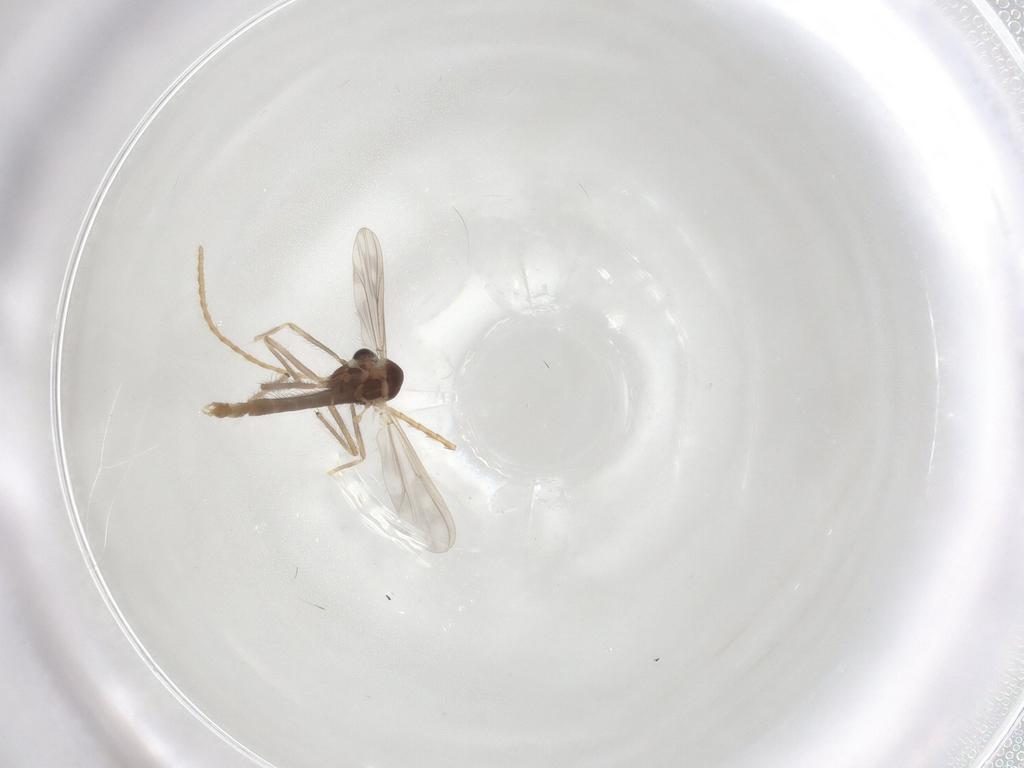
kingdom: Animalia
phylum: Arthropoda
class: Insecta
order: Diptera
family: Chironomidae
